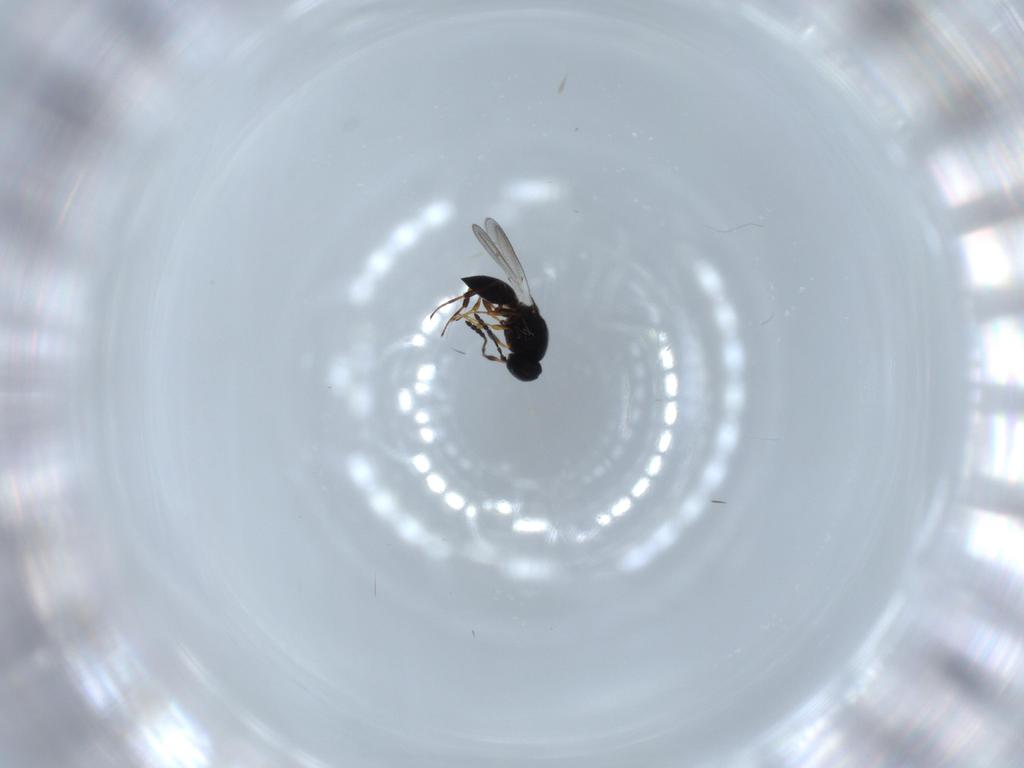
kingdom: Animalia
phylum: Arthropoda
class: Insecta
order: Hymenoptera
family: Platygastridae
